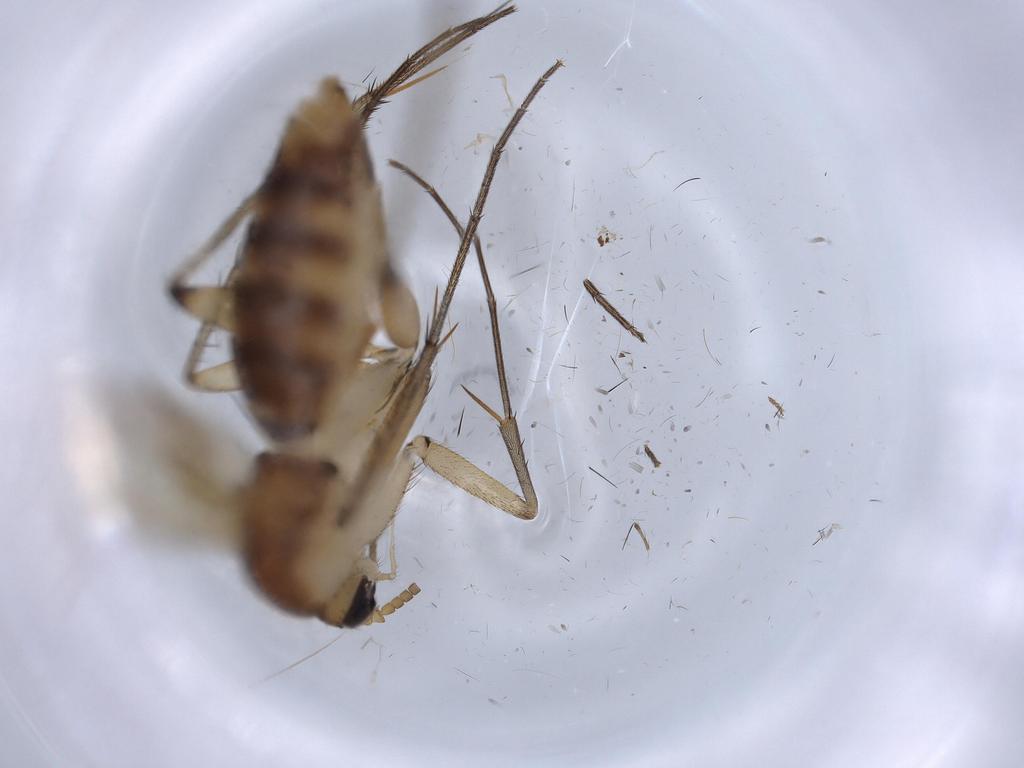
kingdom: Animalia
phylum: Arthropoda
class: Insecta
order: Diptera
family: Mycetophilidae
